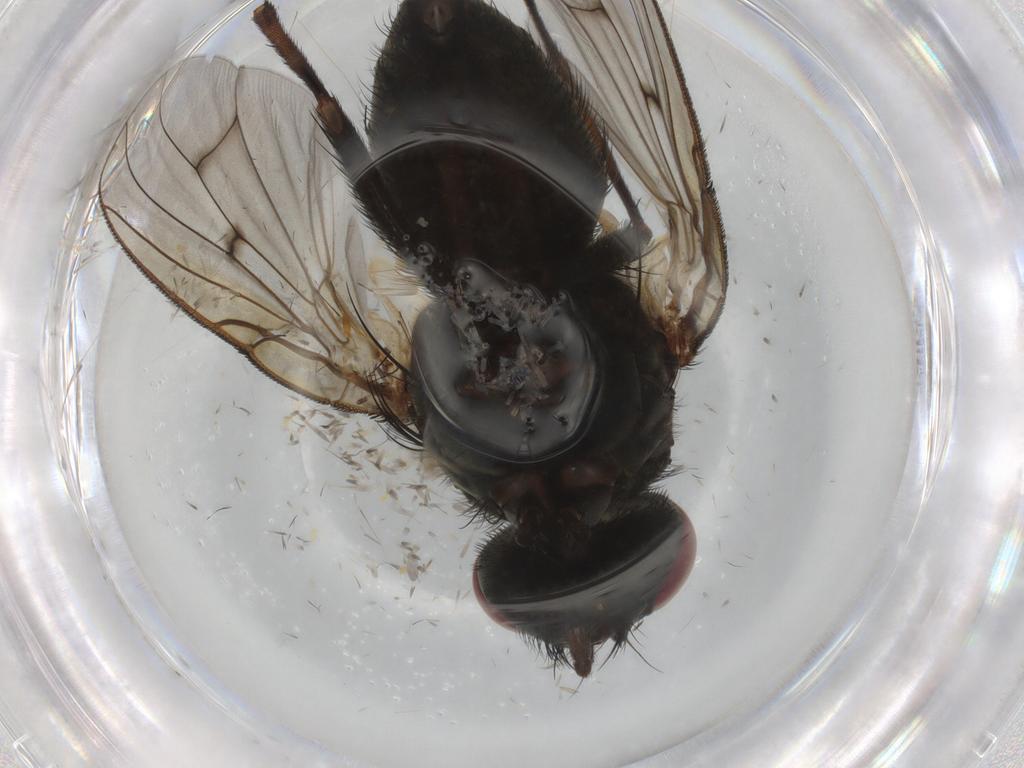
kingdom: Animalia
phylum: Arthropoda
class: Insecta
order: Diptera
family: Muscidae
